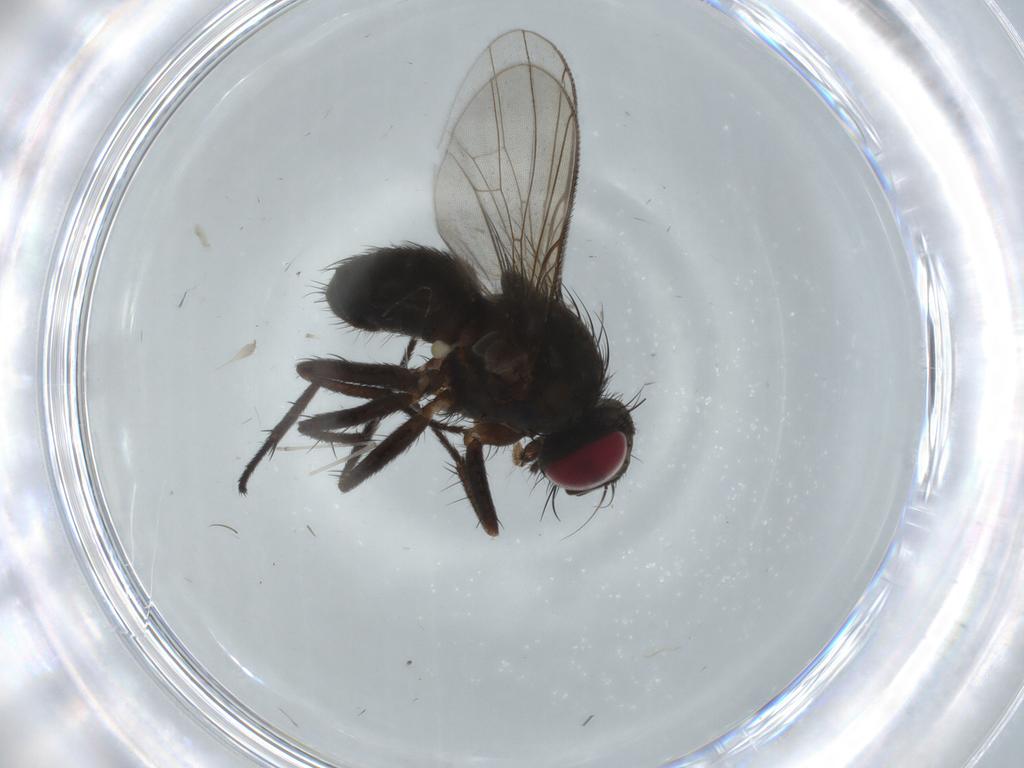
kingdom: Animalia
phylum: Arthropoda
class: Insecta
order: Diptera
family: Muscidae
